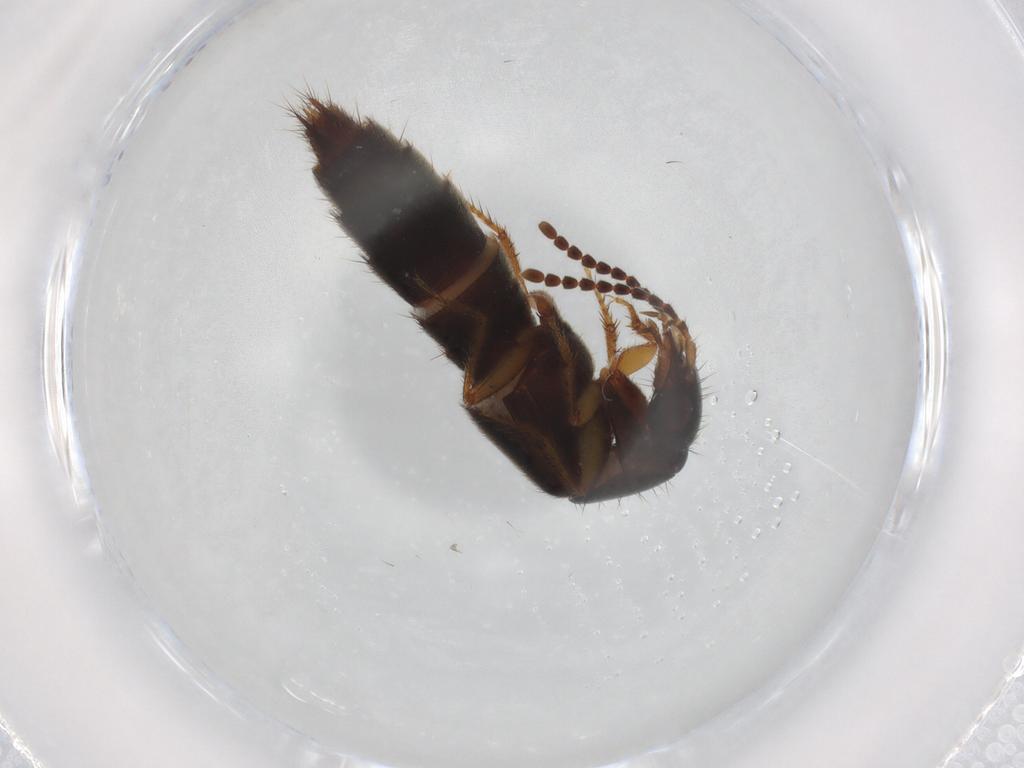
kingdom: Animalia
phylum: Arthropoda
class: Insecta
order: Coleoptera
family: Staphylinidae
